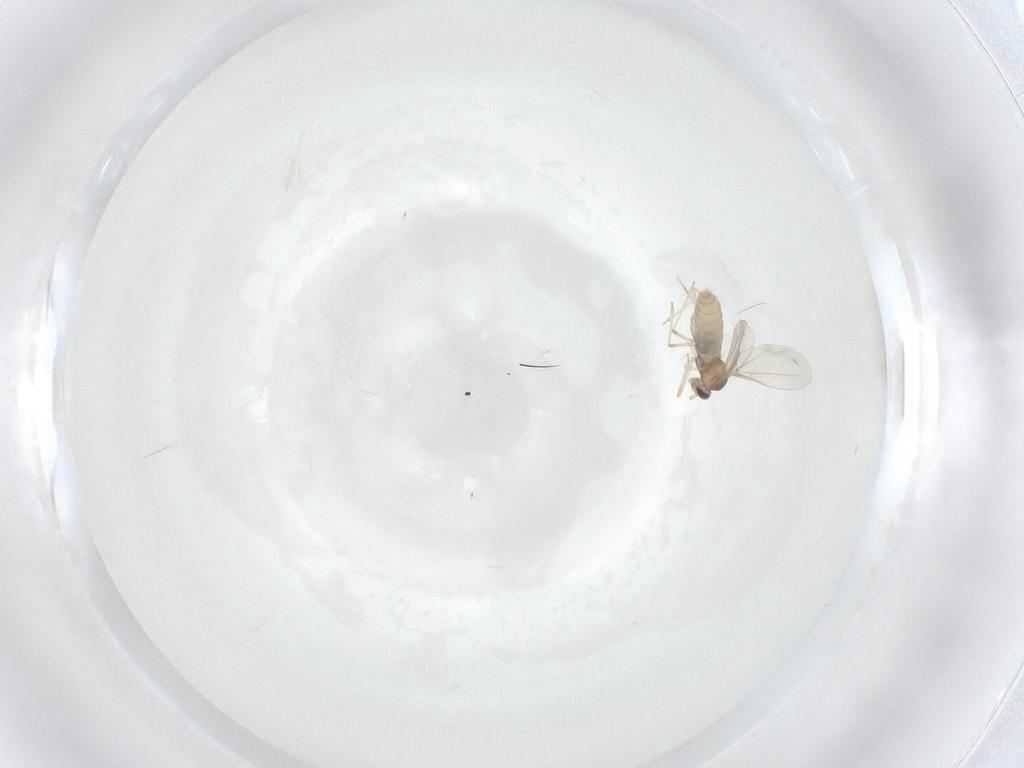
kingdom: Animalia
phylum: Arthropoda
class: Insecta
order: Diptera
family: Cecidomyiidae
